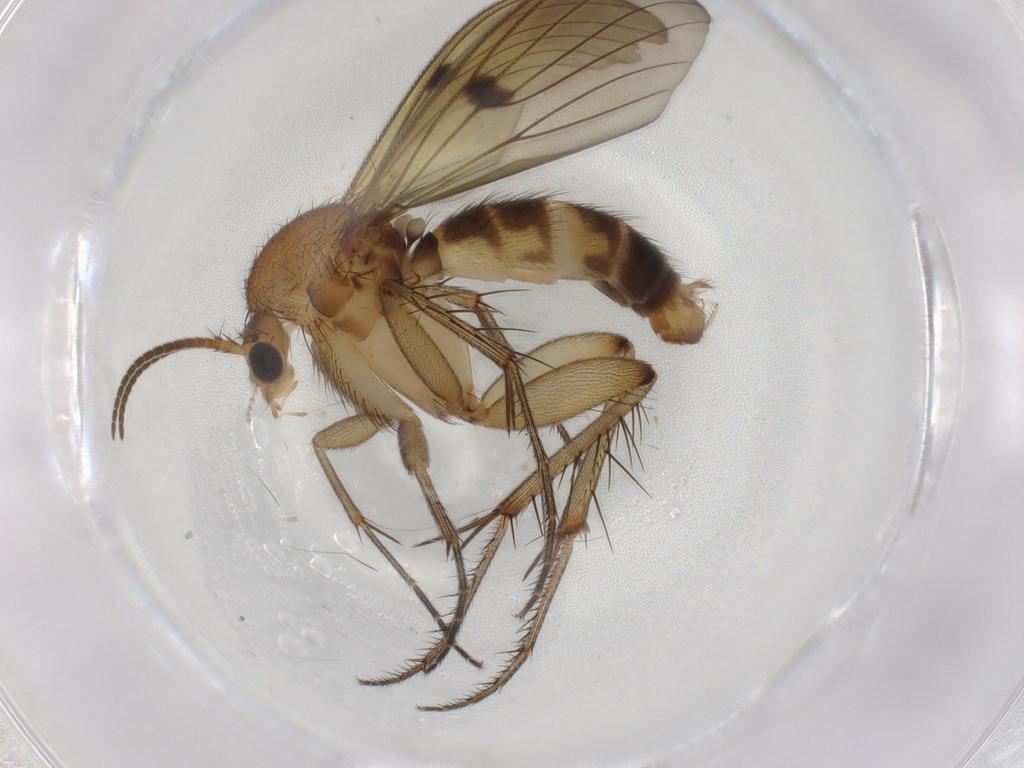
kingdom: Animalia
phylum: Arthropoda
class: Insecta
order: Diptera
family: Mycetophilidae
